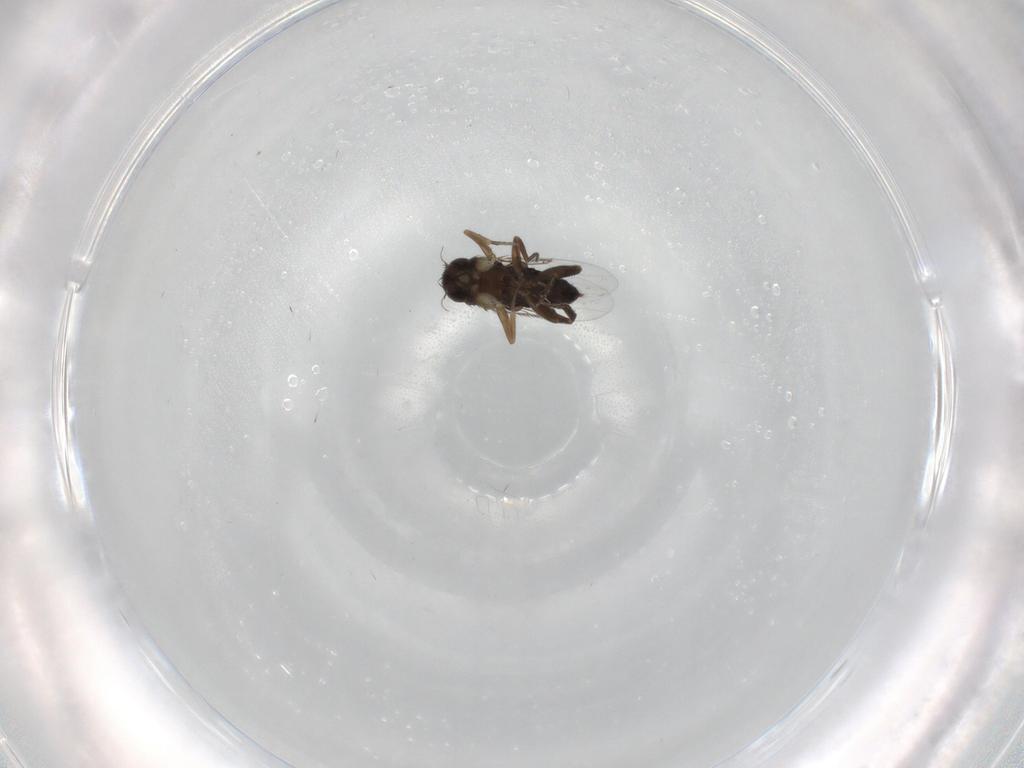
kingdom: Animalia
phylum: Arthropoda
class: Insecta
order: Diptera
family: Phoridae
